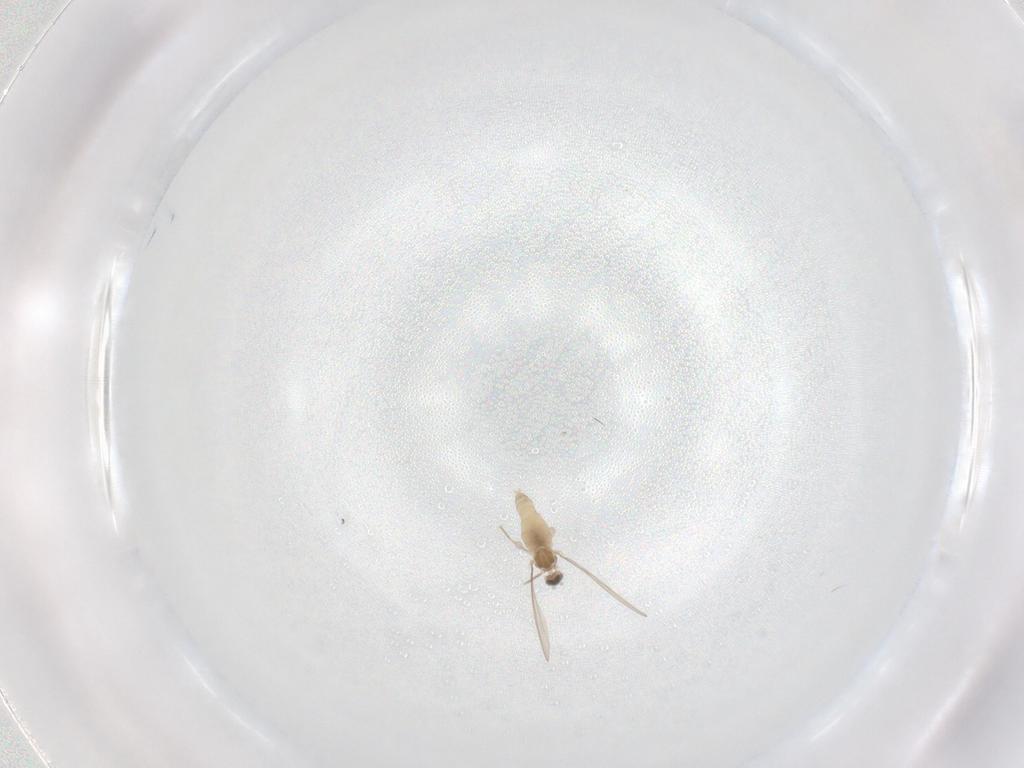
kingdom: Animalia
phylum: Arthropoda
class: Insecta
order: Diptera
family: Cecidomyiidae
